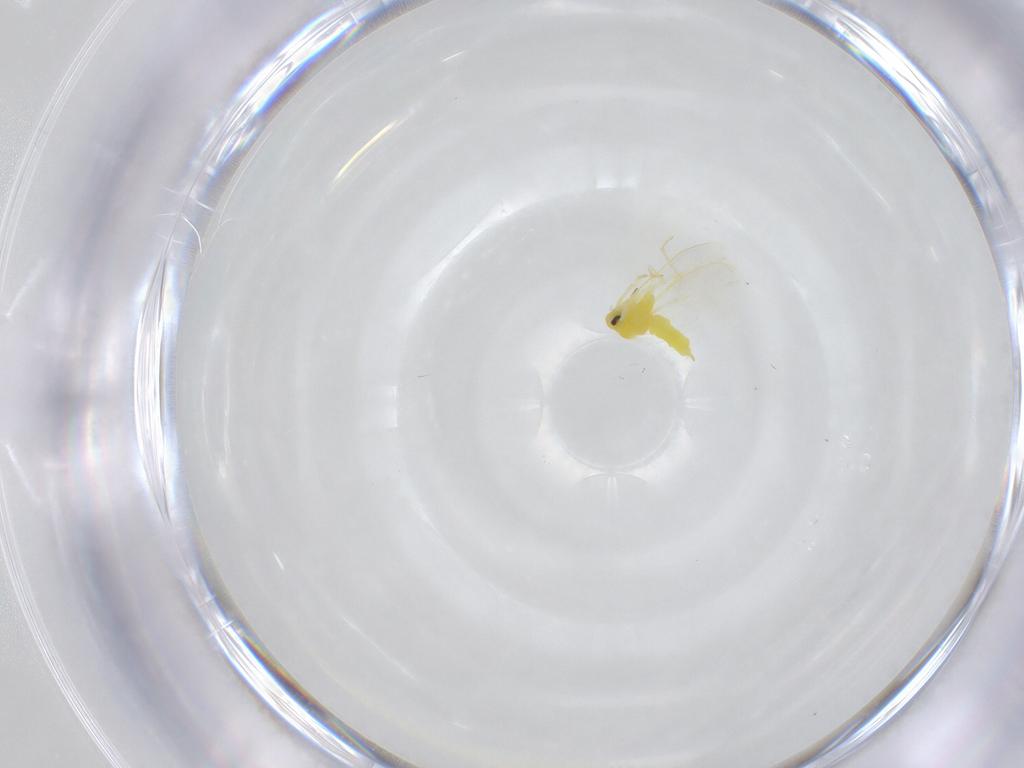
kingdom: Animalia
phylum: Arthropoda
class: Insecta
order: Hemiptera
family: Aleyrodidae
